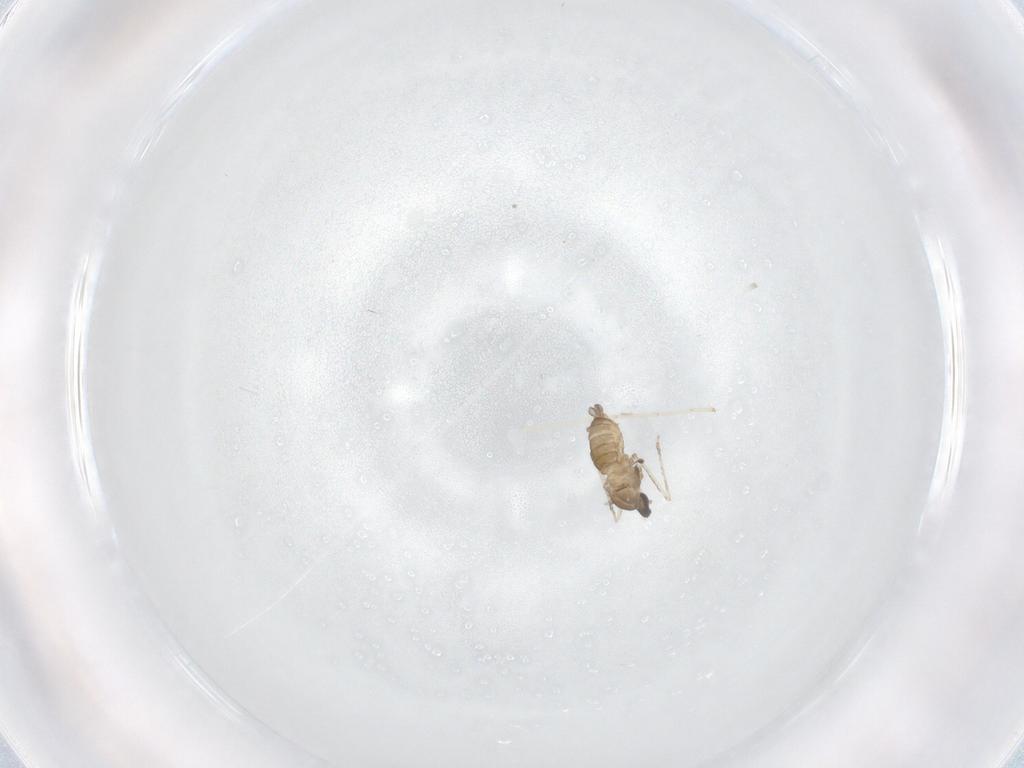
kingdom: Animalia
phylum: Arthropoda
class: Insecta
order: Diptera
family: Cecidomyiidae
